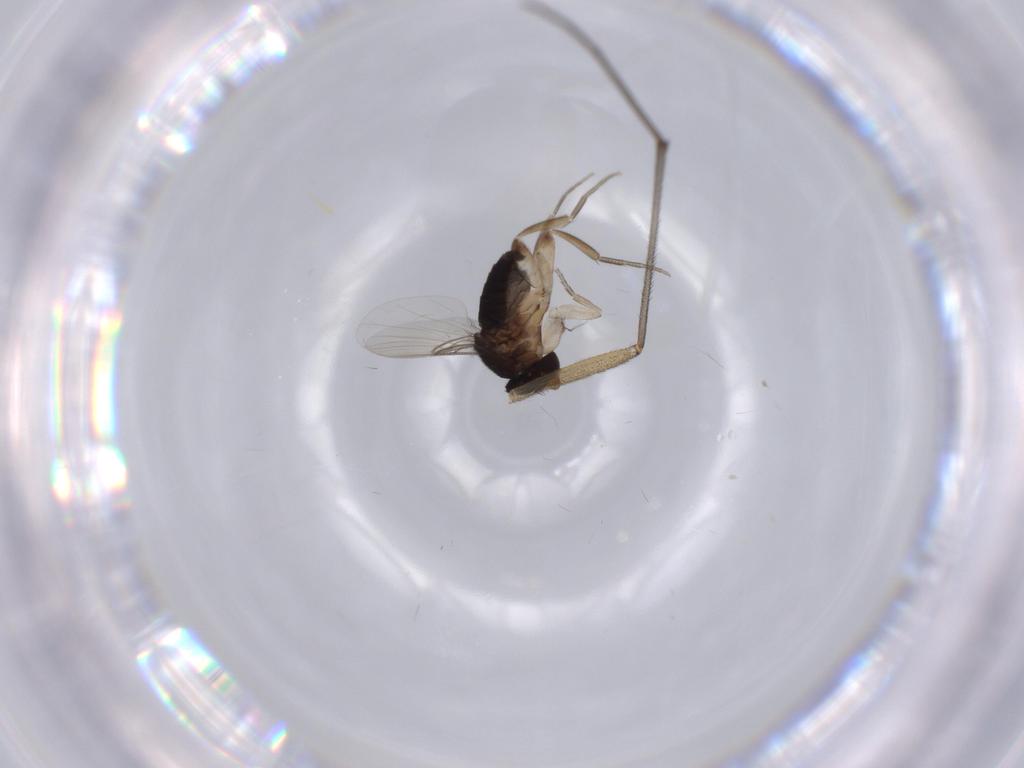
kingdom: Animalia
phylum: Arthropoda
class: Insecta
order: Diptera
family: Phoridae
